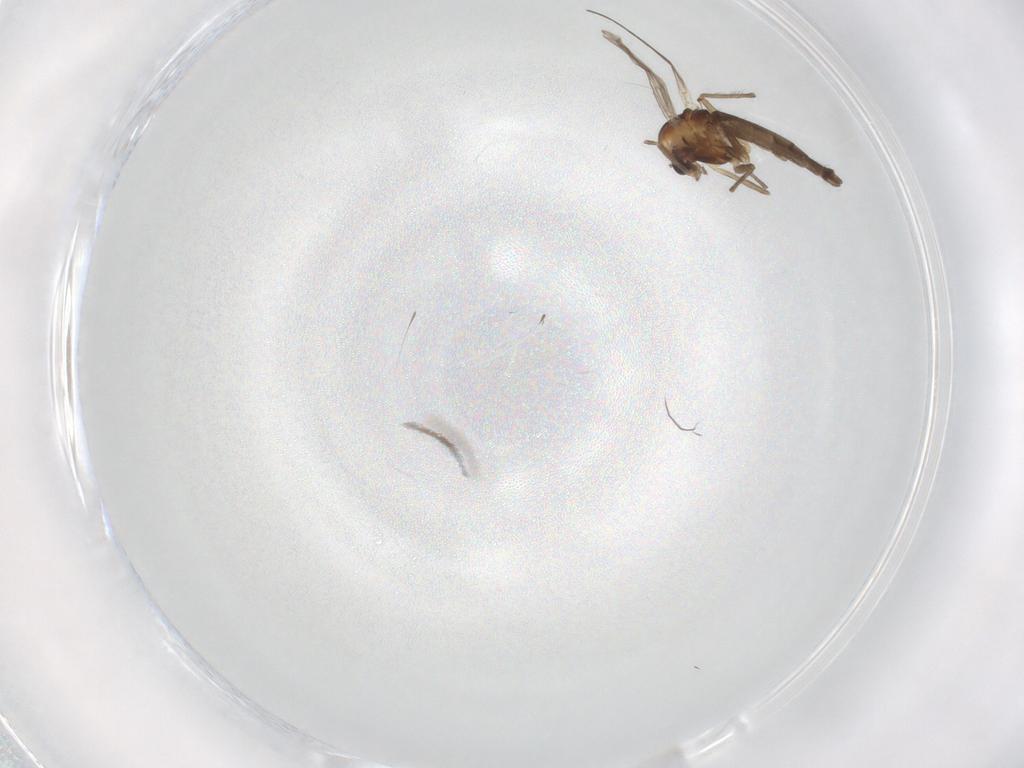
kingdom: Animalia
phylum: Arthropoda
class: Insecta
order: Diptera
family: Chironomidae
